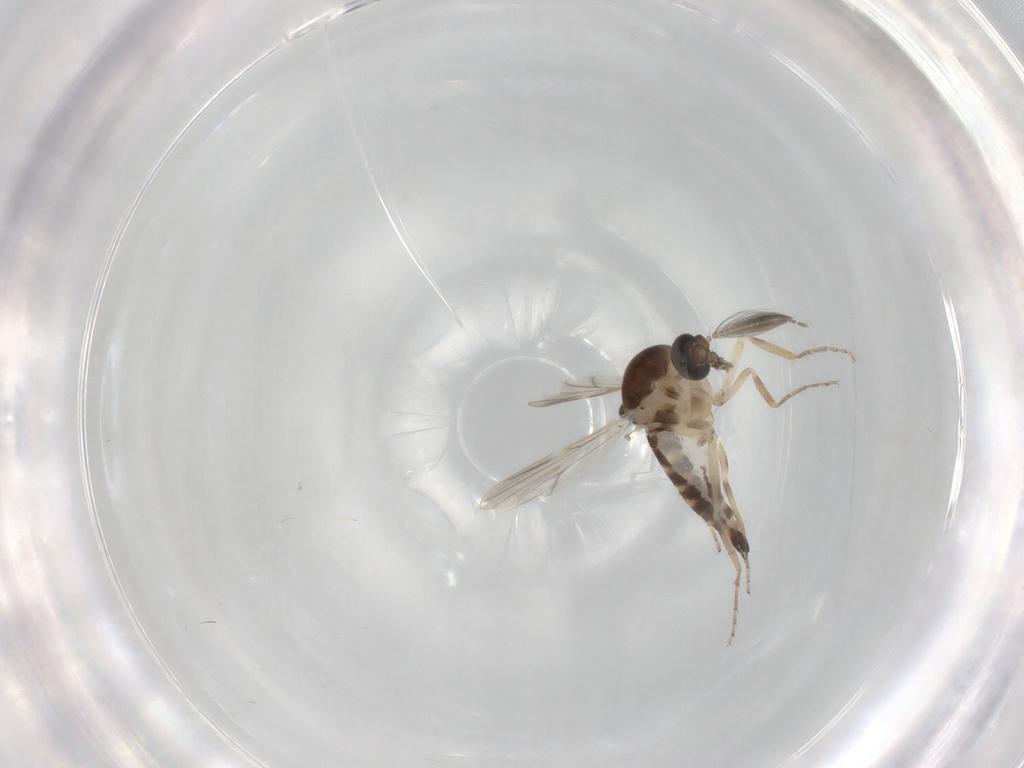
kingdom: Animalia
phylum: Arthropoda
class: Insecta
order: Diptera
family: Ceratopogonidae
